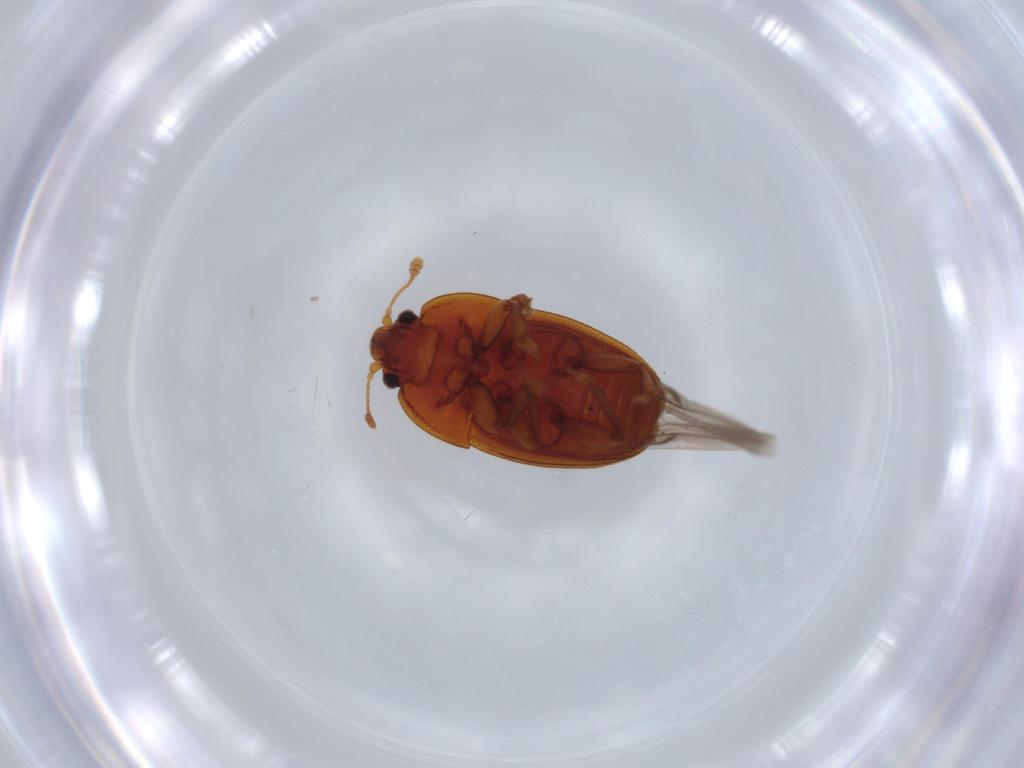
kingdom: Animalia
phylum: Arthropoda
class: Insecta
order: Coleoptera
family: Nitidulidae
